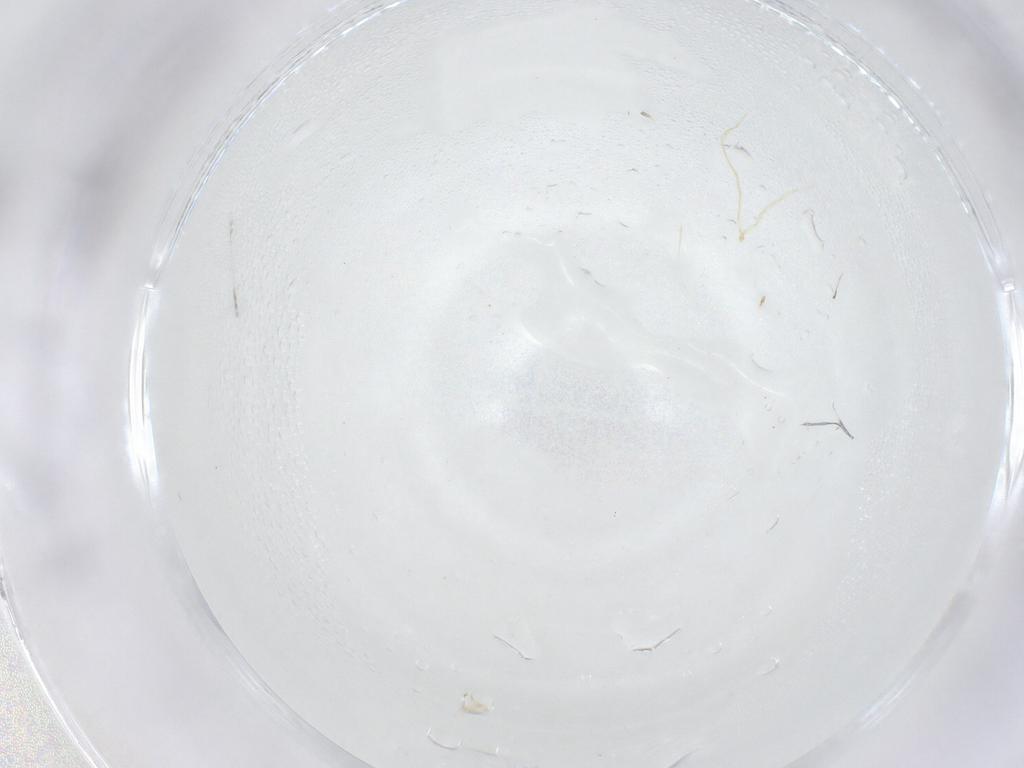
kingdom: Animalia
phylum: Arthropoda
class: Insecta
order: Diptera
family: Cecidomyiidae
